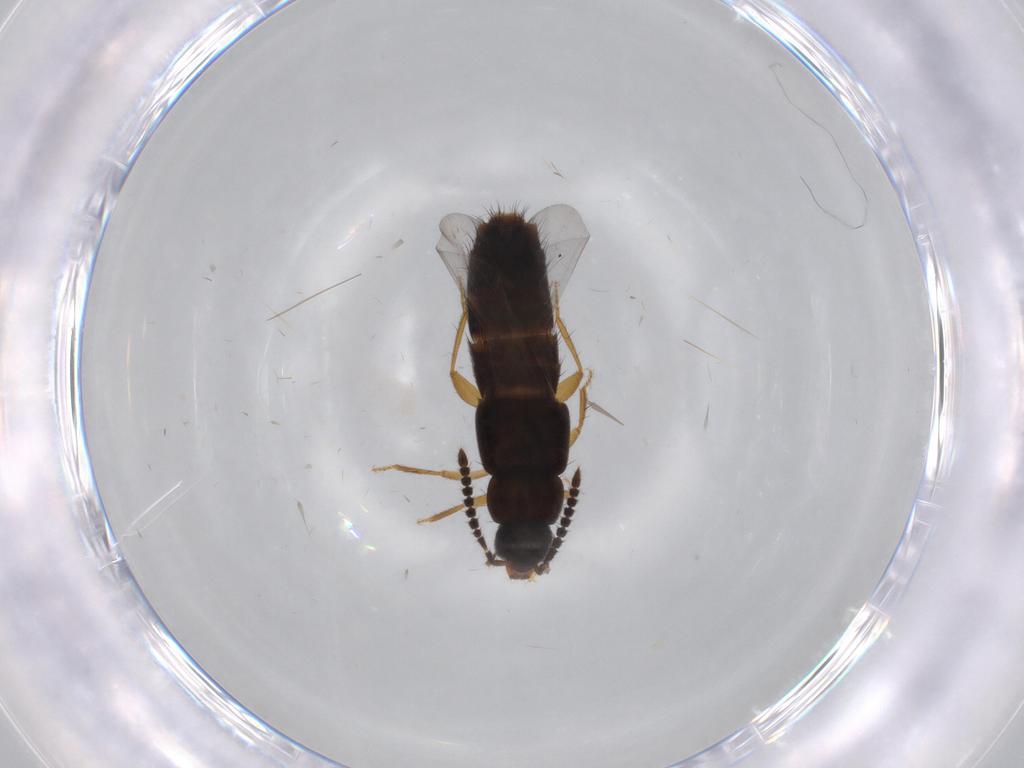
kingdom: Animalia
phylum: Arthropoda
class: Insecta
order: Coleoptera
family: Staphylinidae
